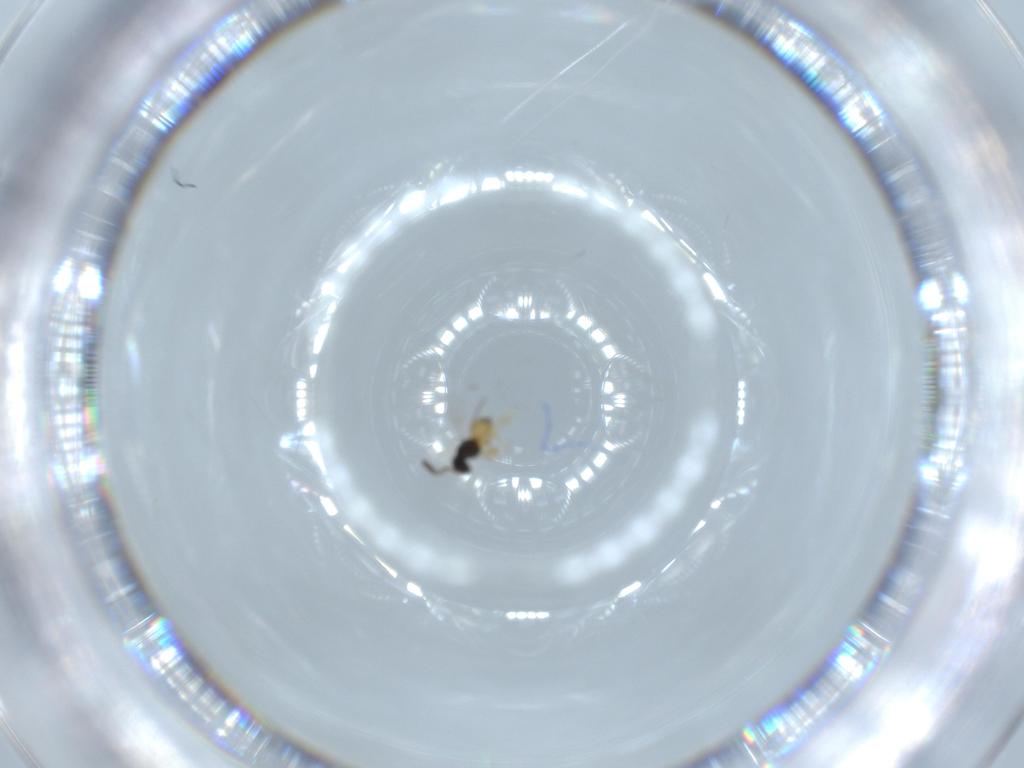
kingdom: Animalia
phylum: Arthropoda
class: Insecta
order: Hymenoptera
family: Scelionidae
